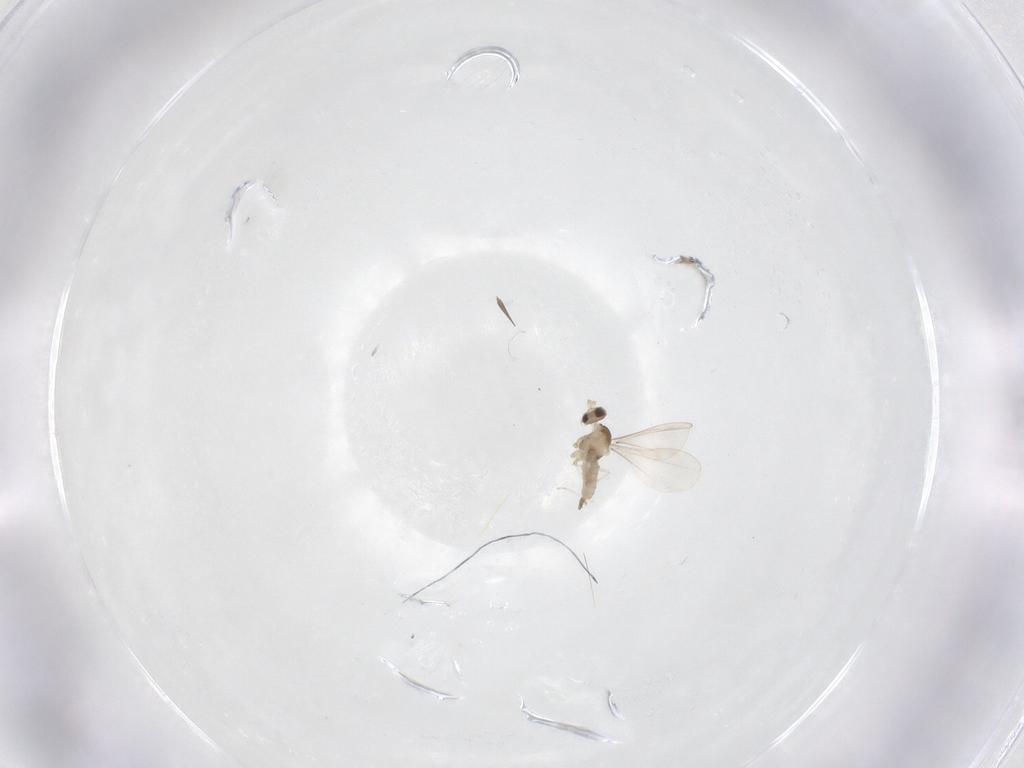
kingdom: Animalia
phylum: Arthropoda
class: Insecta
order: Diptera
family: Cecidomyiidae
